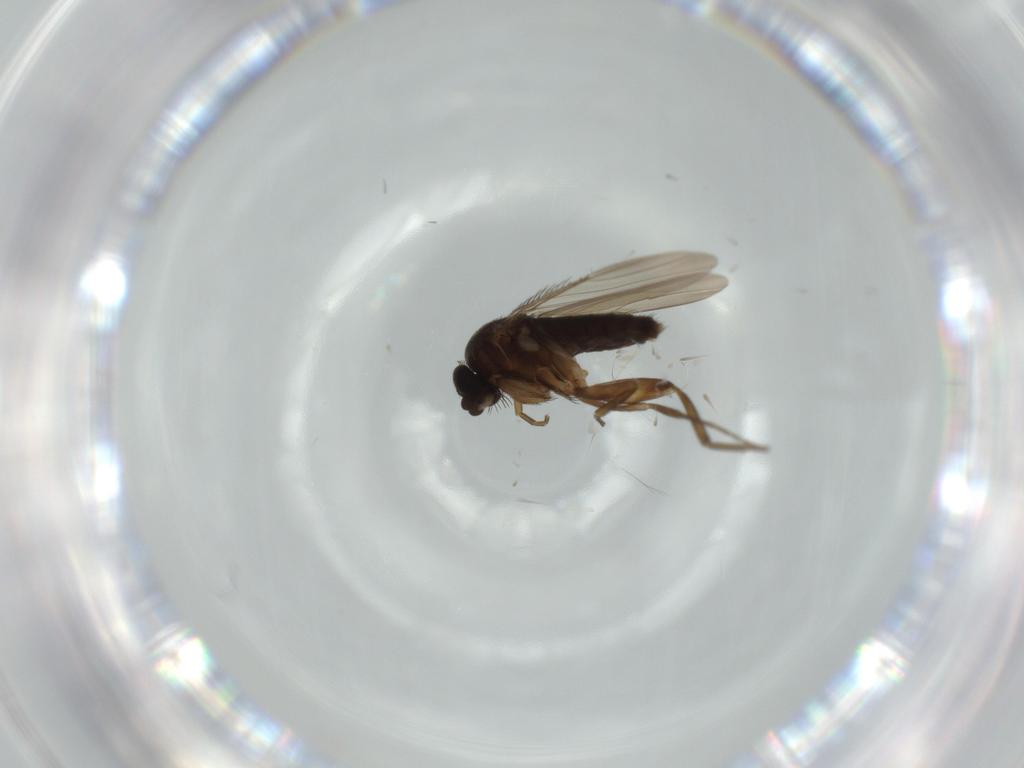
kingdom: Animalia
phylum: Arthropoda
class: Insecta
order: Diptera
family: Phoridae
